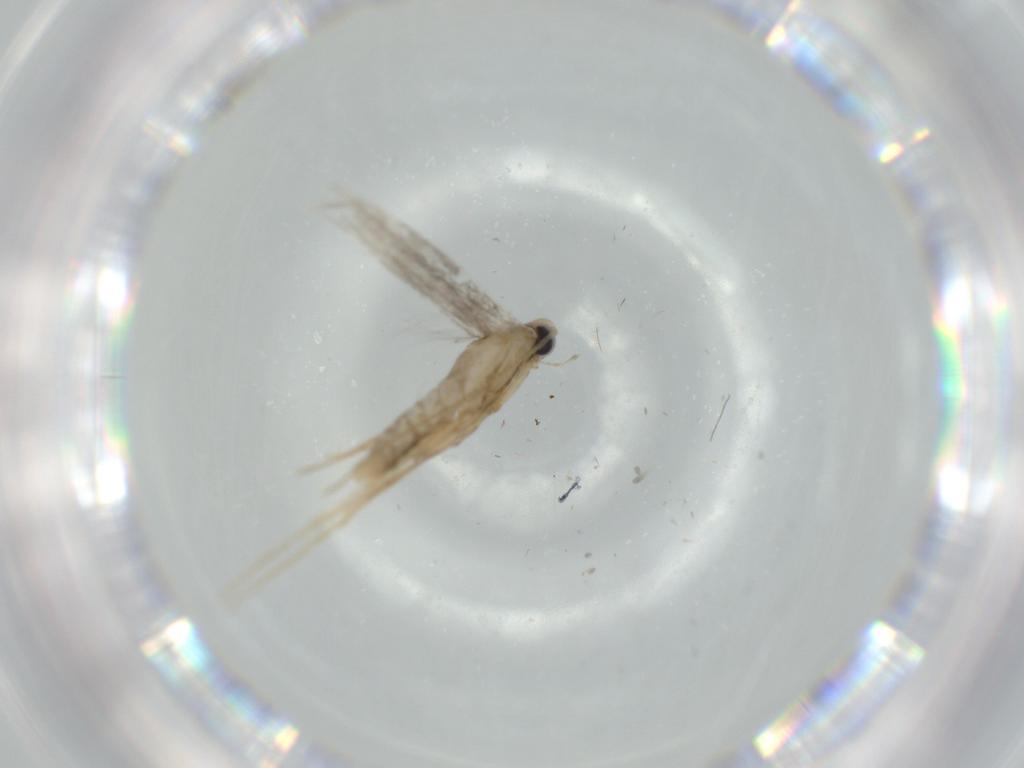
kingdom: Animalia
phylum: Arthropoda
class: Insecta
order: Lepidoptera
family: Gracillariidae
